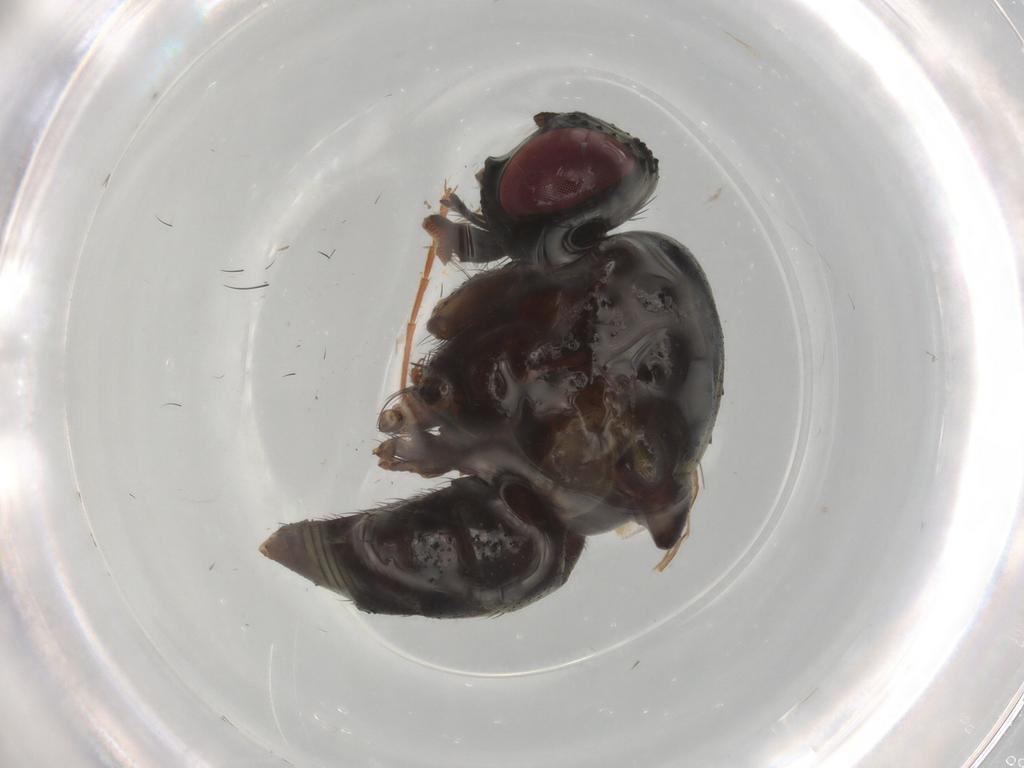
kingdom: Animalia
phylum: Arthropoda
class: Insecta
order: Diptera
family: Muscidae
